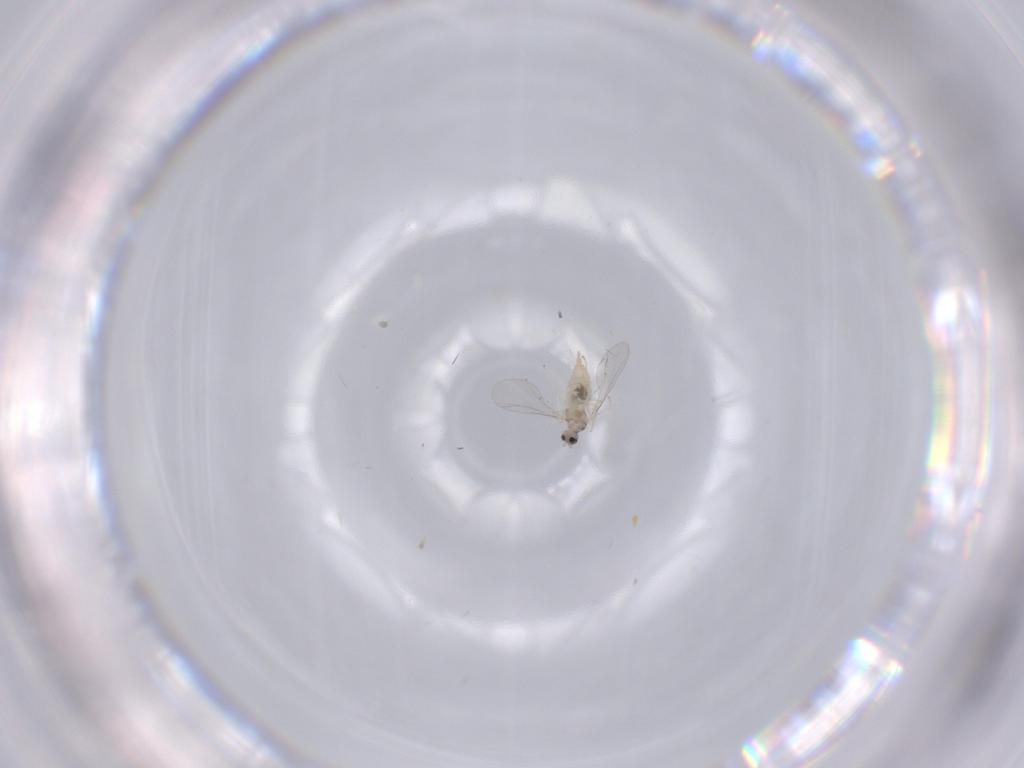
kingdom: Animalia
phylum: Arthropoda
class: Insecta
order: Diptera
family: Cecidomyiidae
